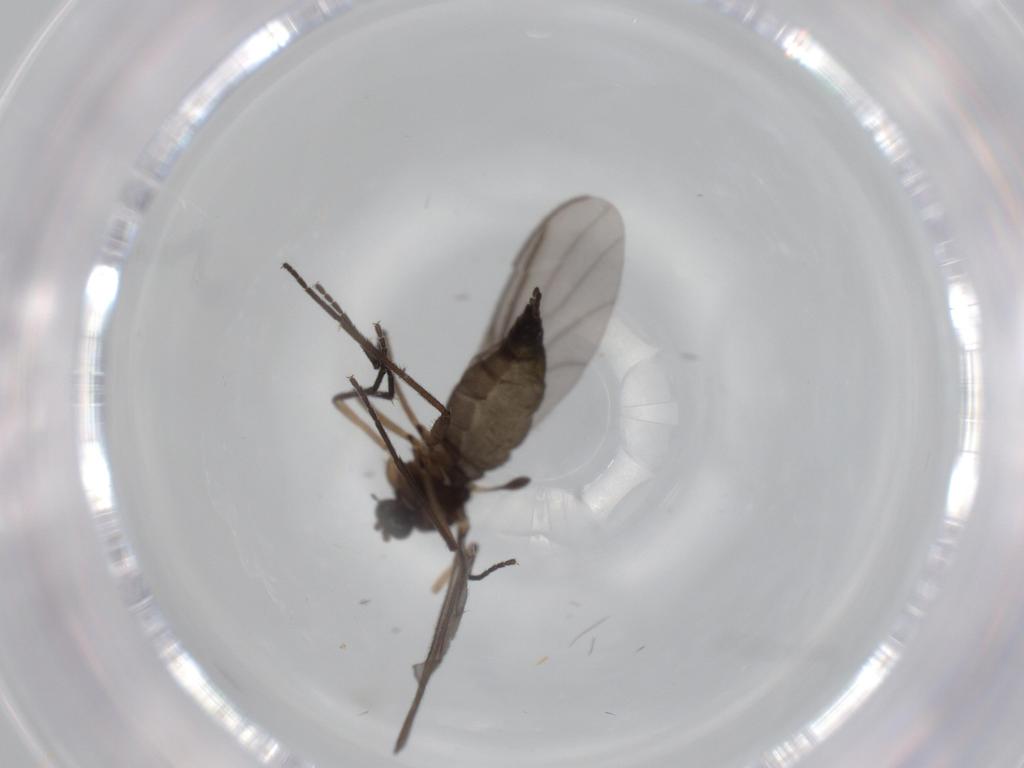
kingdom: Animalia
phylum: Arthropoda
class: Insecta
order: Diptera
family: Sciaridae
